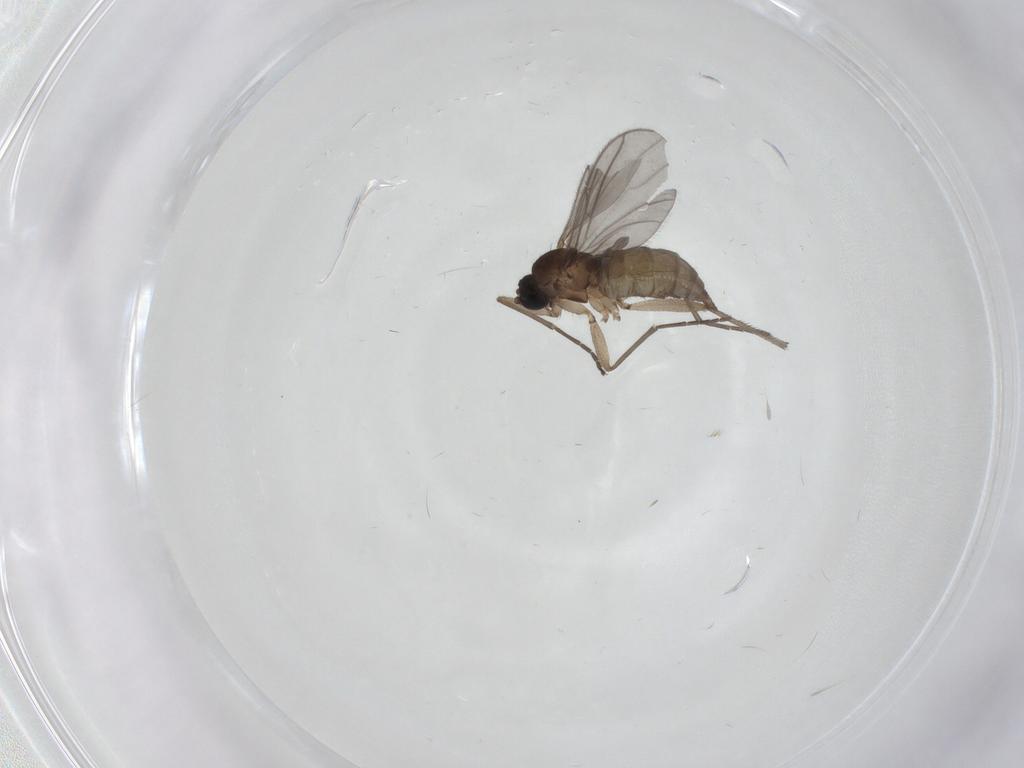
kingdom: Animalia
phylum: Arthropoda
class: Insecta
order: Diptera
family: Sciaridae
